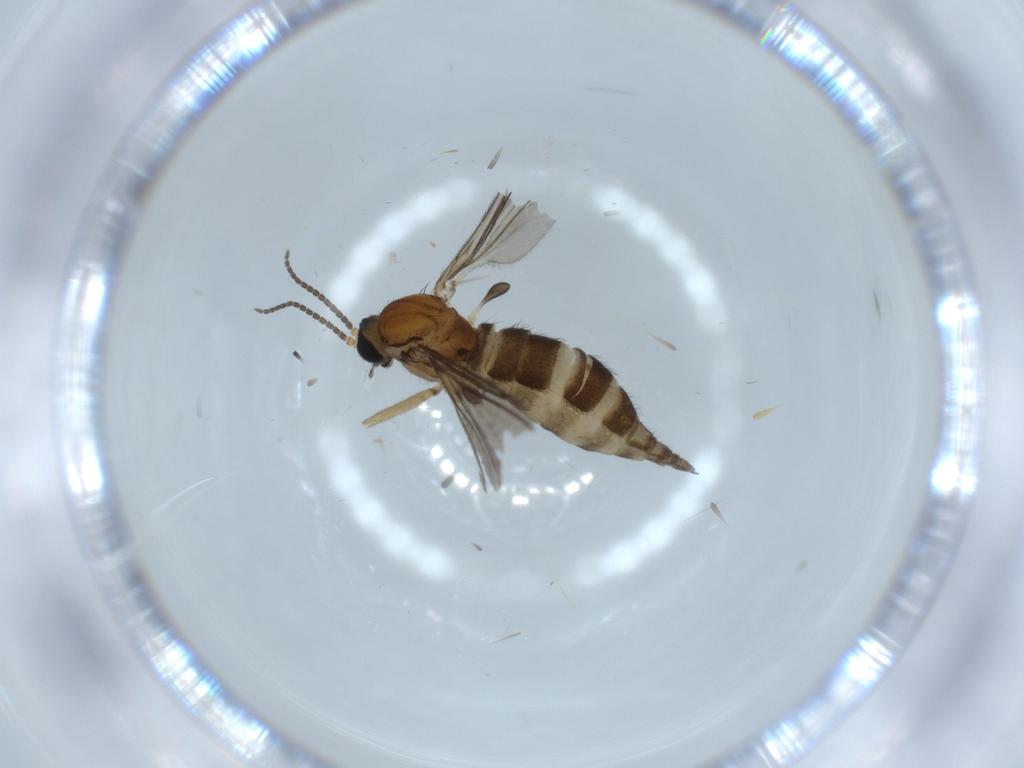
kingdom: Animalia
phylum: Arthropoda
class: Insecta
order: Diptera
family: Sciaridae
